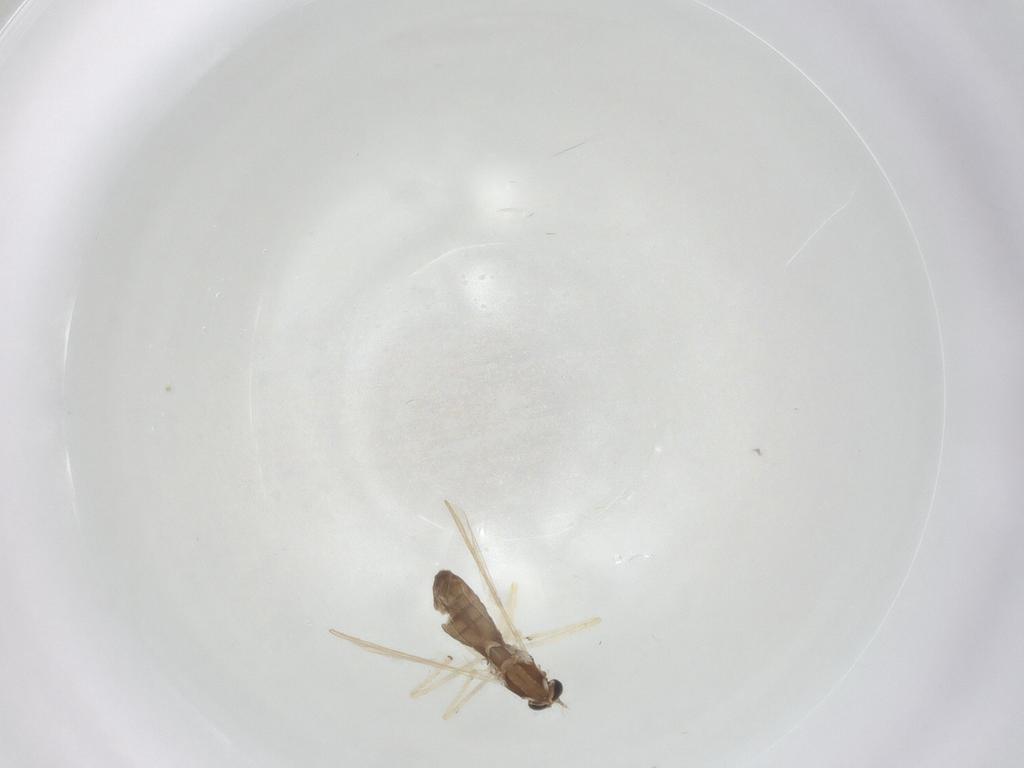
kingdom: Animalia
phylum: Arthropoda
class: Insecta
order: Diptera
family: Chironomidae
